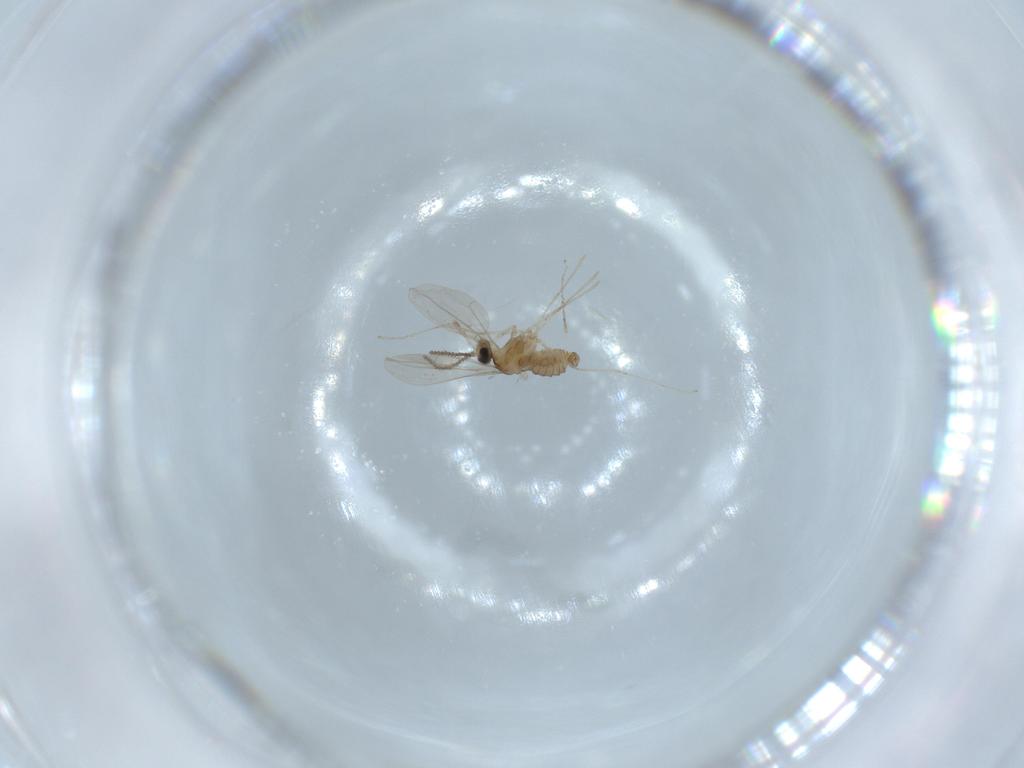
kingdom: Animalia
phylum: Arthropoda
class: Insecta
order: Diptera
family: Cecidomyiidae
